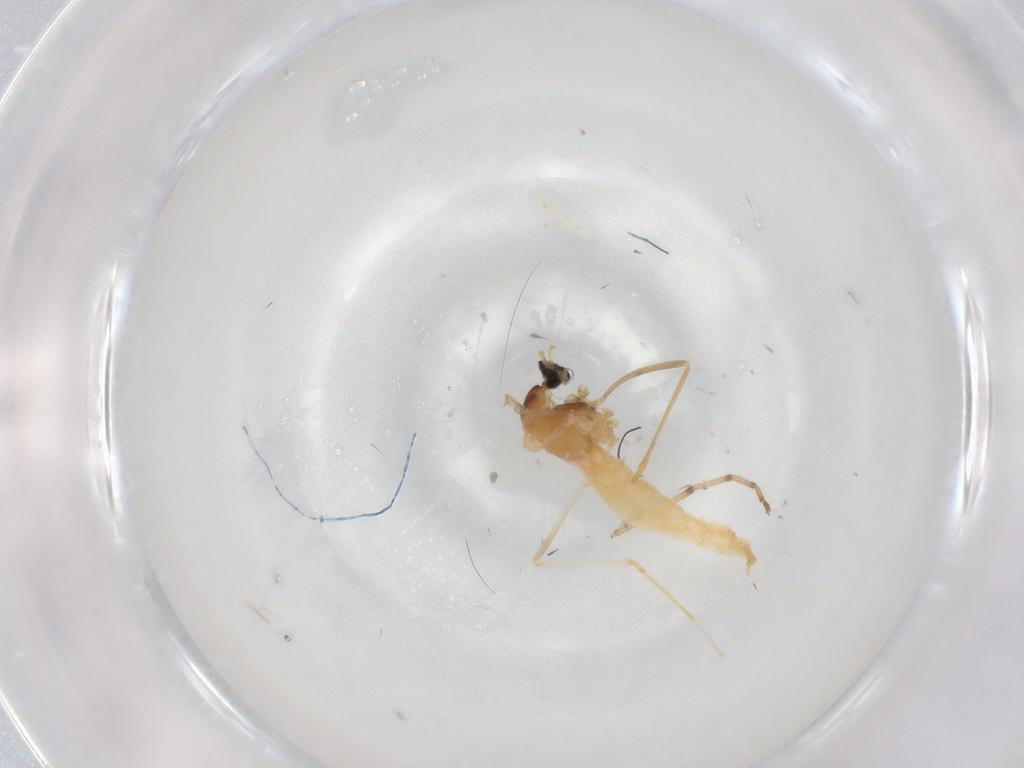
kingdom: Animalia
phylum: Arthropoda
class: Insecta
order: Diptera
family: Cecidomyiidae
